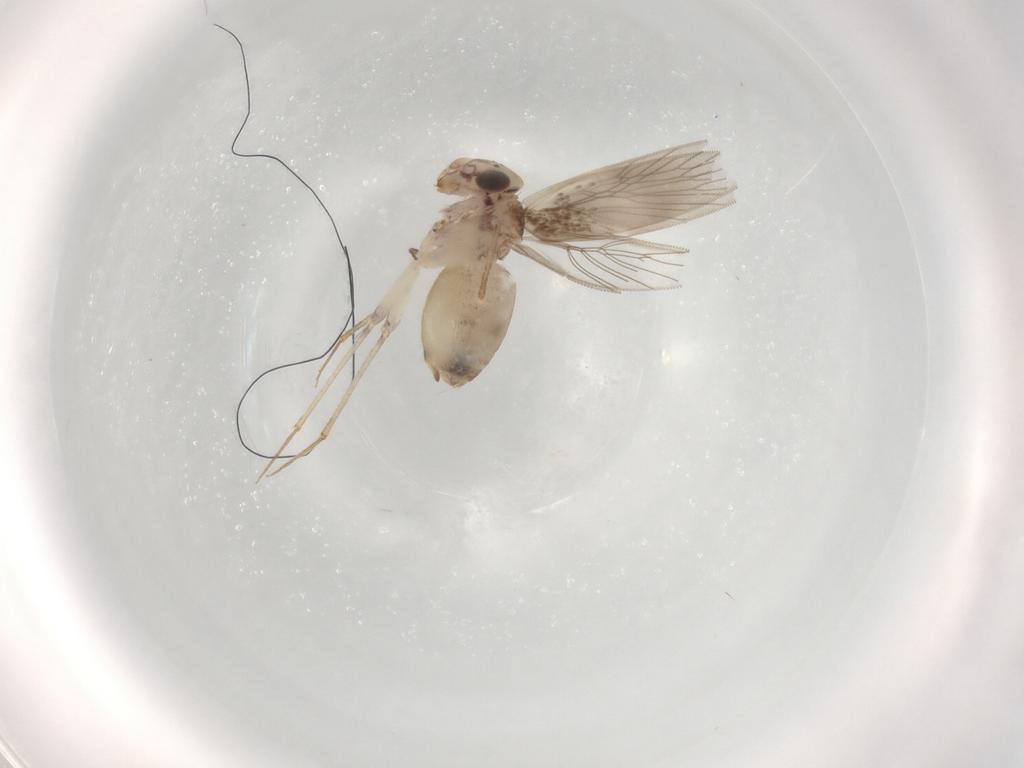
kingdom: Animalia
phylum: Arthropoda
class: Insecta
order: Psocodea
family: Lepidopsocidae
